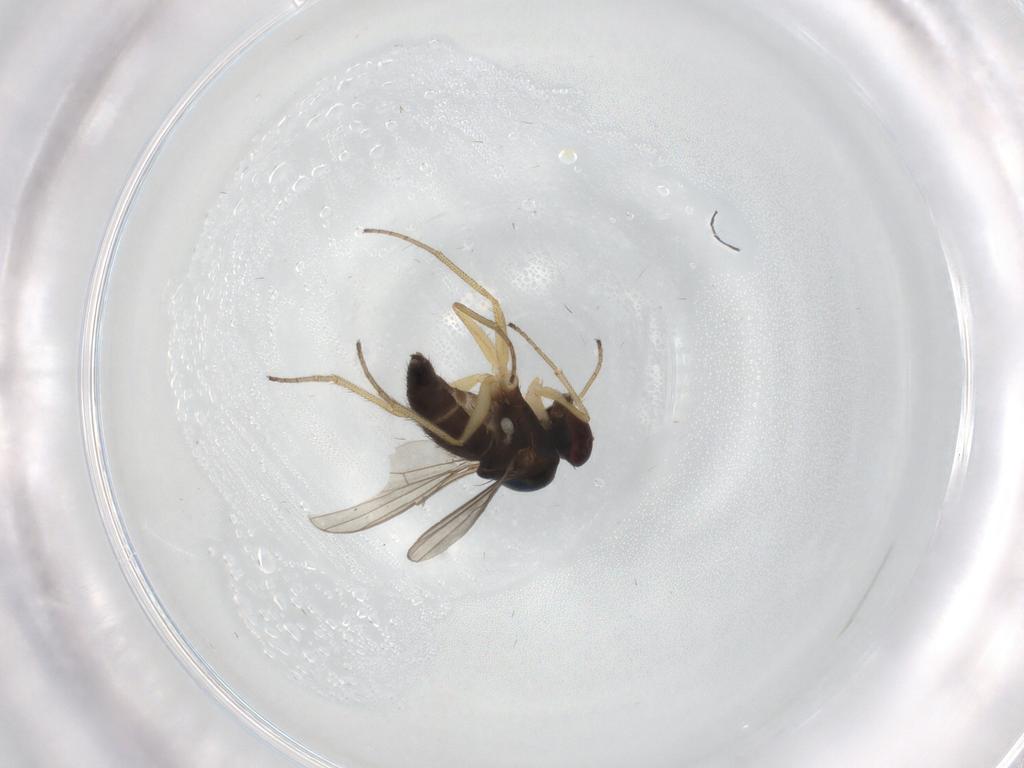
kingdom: Animalia
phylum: Arthropoda
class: Insecta
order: Diptera
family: Dolichopodidae
